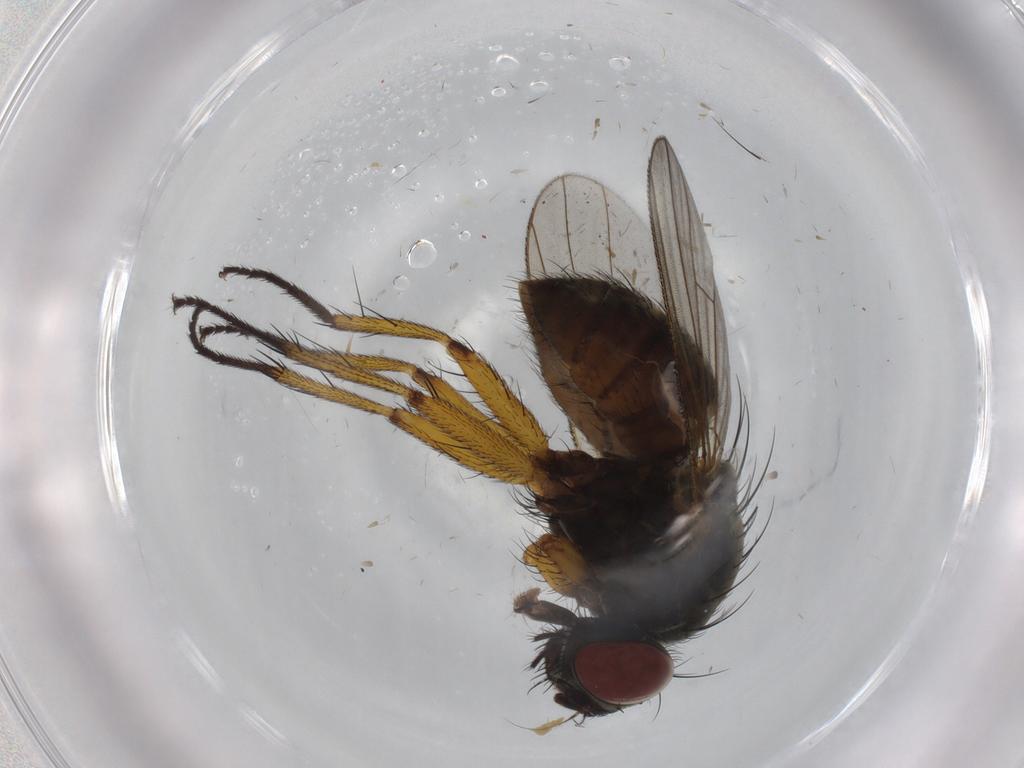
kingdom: Animalia
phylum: Arthropoda
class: Insecta
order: Diptera
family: Muscidae
